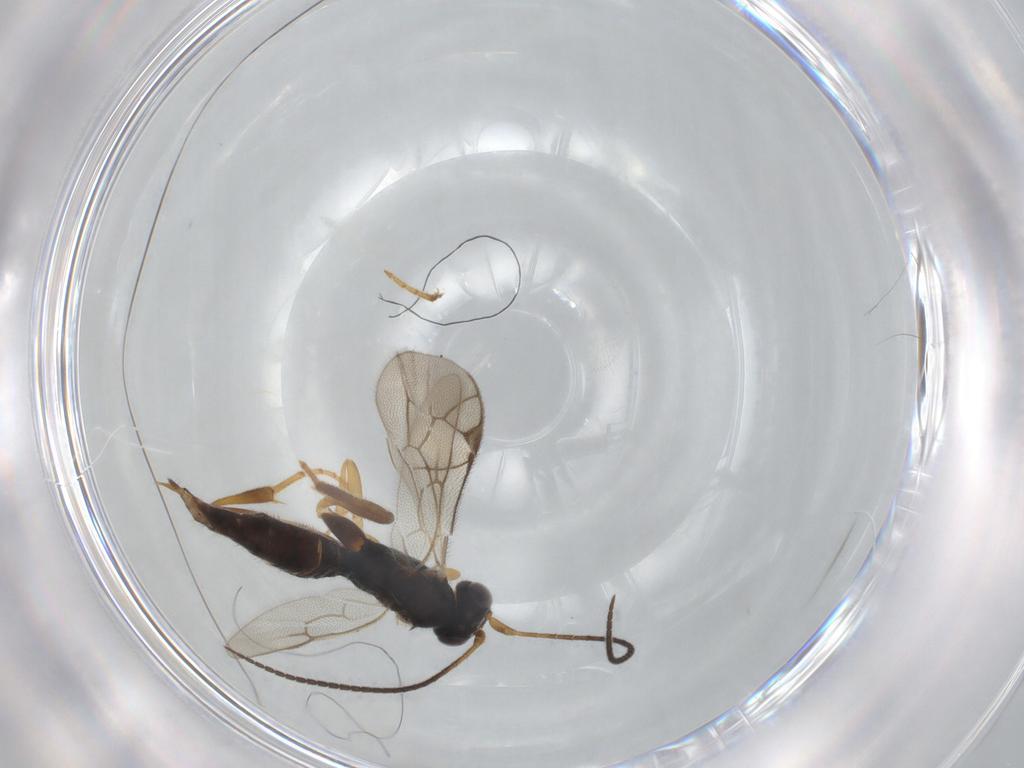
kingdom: Animalia
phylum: Arthropoda
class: Insecta
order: Hymenoptera
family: Ichneumonidae
